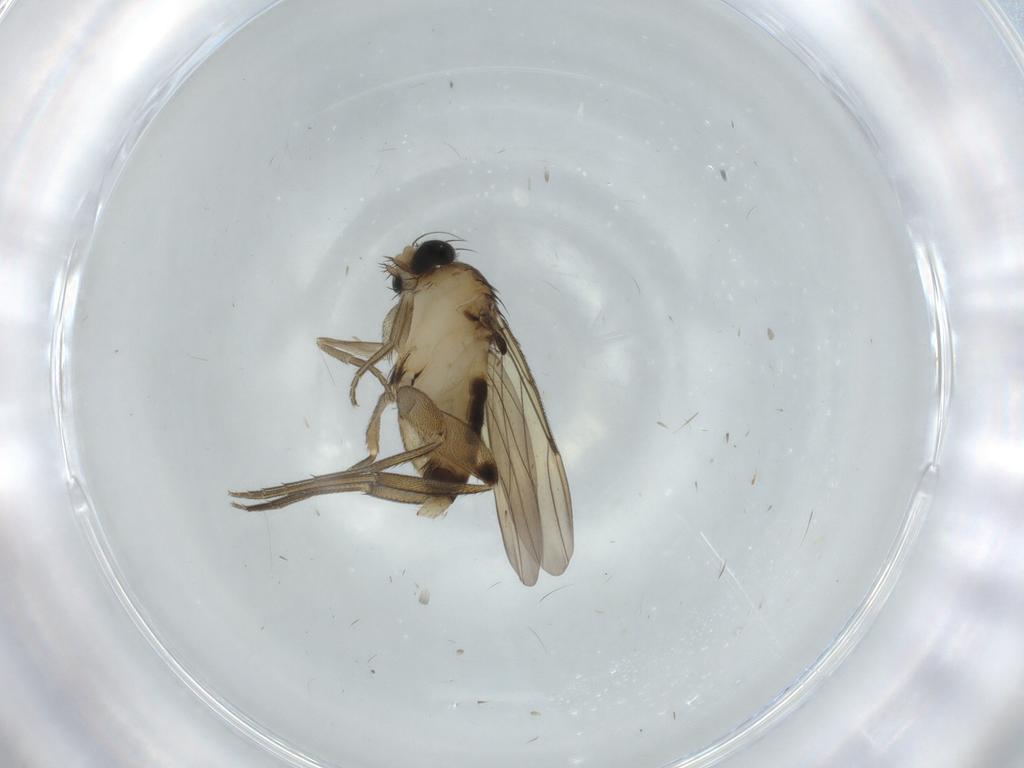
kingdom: Animalia
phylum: Arthropoda
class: Insecta
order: Diptera
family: Phoridae
